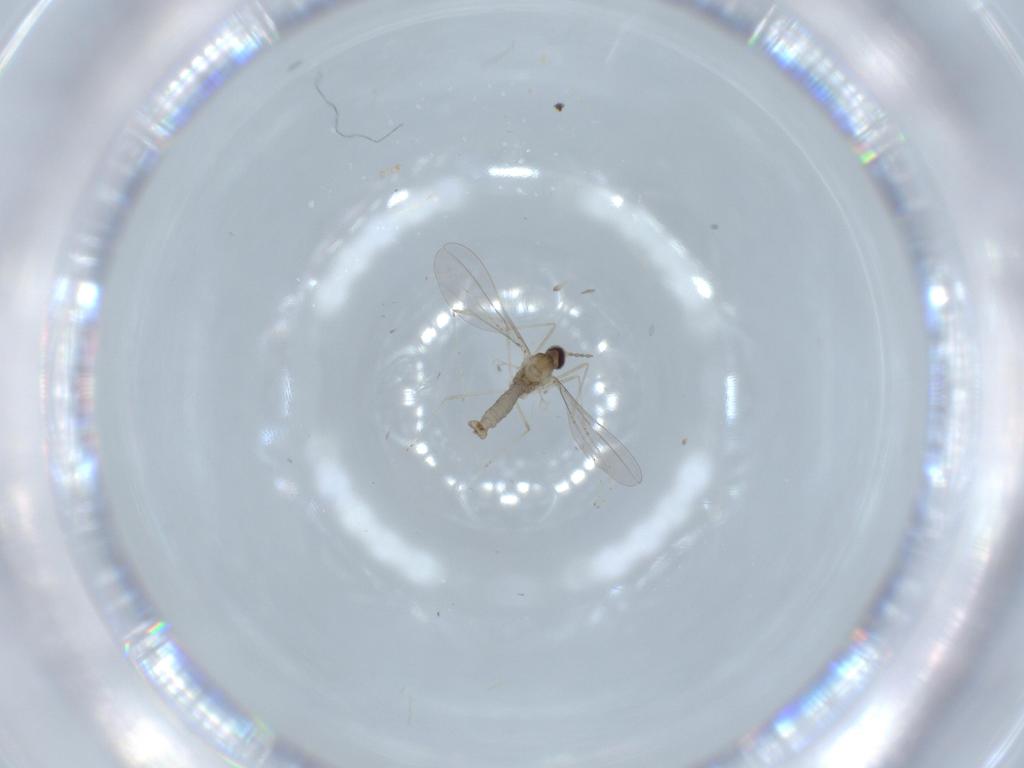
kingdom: Animalia
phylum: Arthropoda
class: Insecta
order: Diptera
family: Cecidomyiidae
